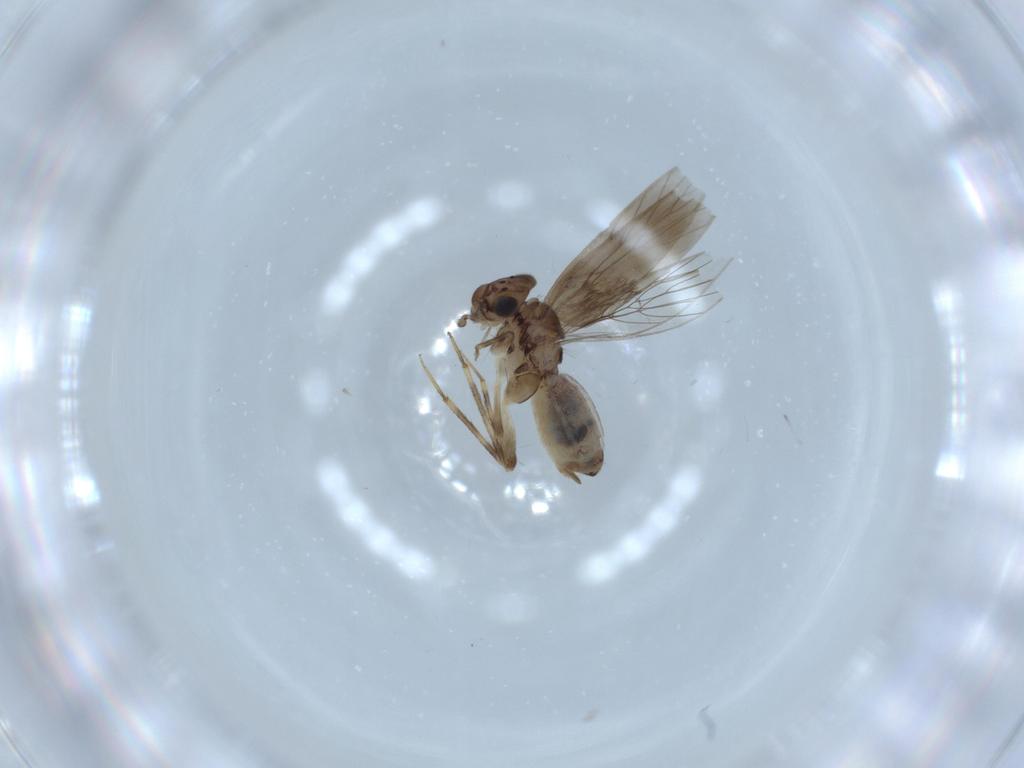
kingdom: Animalia
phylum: Arthropoda
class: Insecta
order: Psocodea
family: Lepidopsocidae
